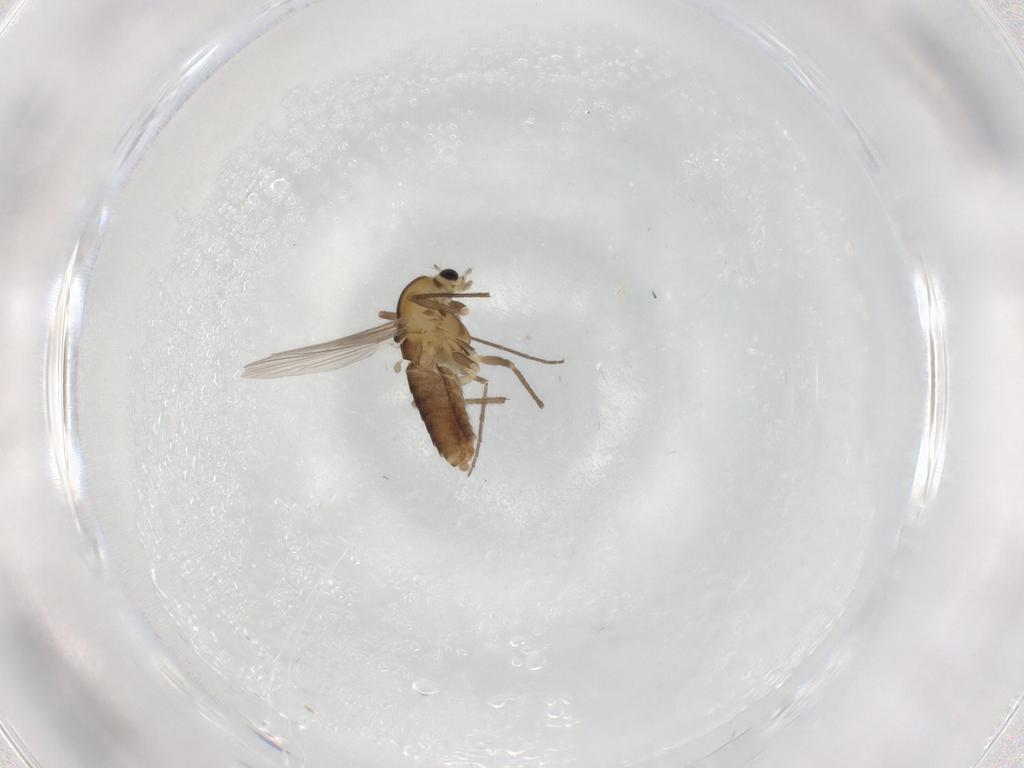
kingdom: Animalia
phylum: Arthropoda
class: Insecta
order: Diptera
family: Chironomidae
